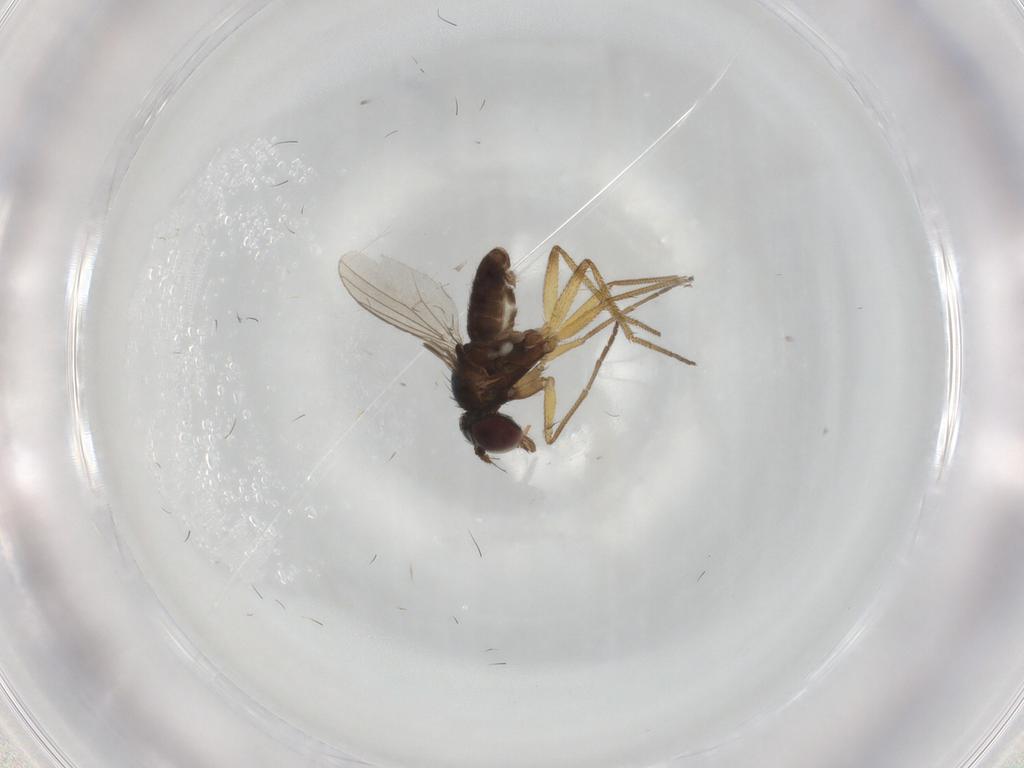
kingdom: Animalia
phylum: Arthropoda
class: Insecta
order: Diptera
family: Dolichopodidae
